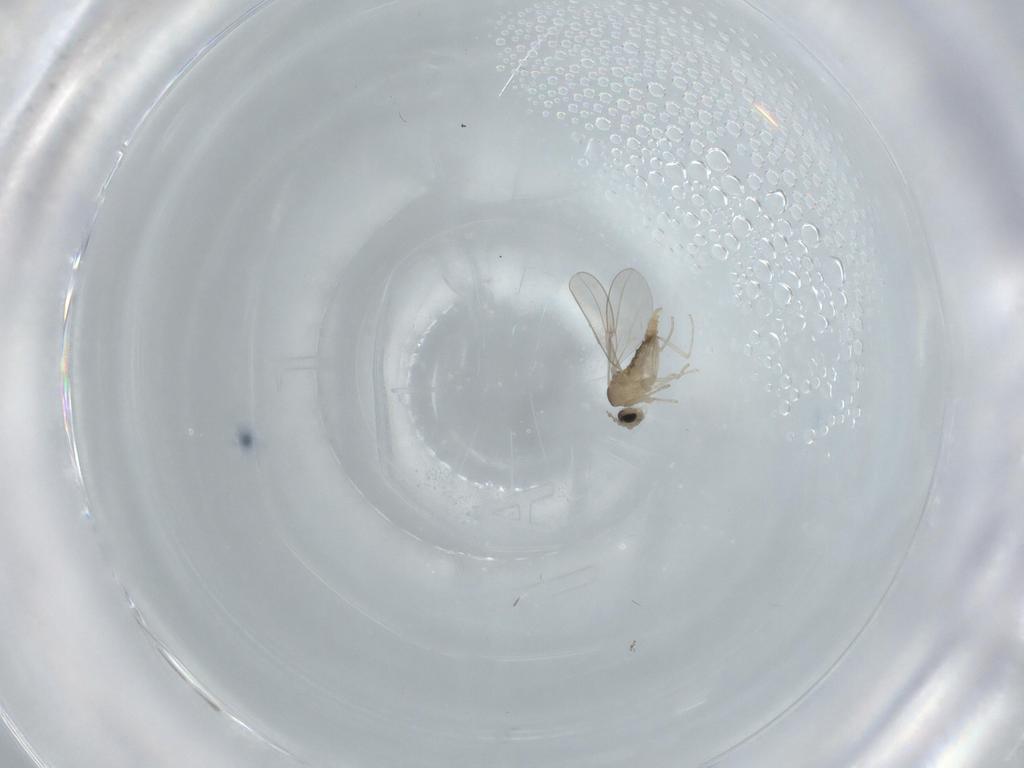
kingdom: Animalia
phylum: Arthropoda
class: Insecta
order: Diptera
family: Cecidomyiidae
